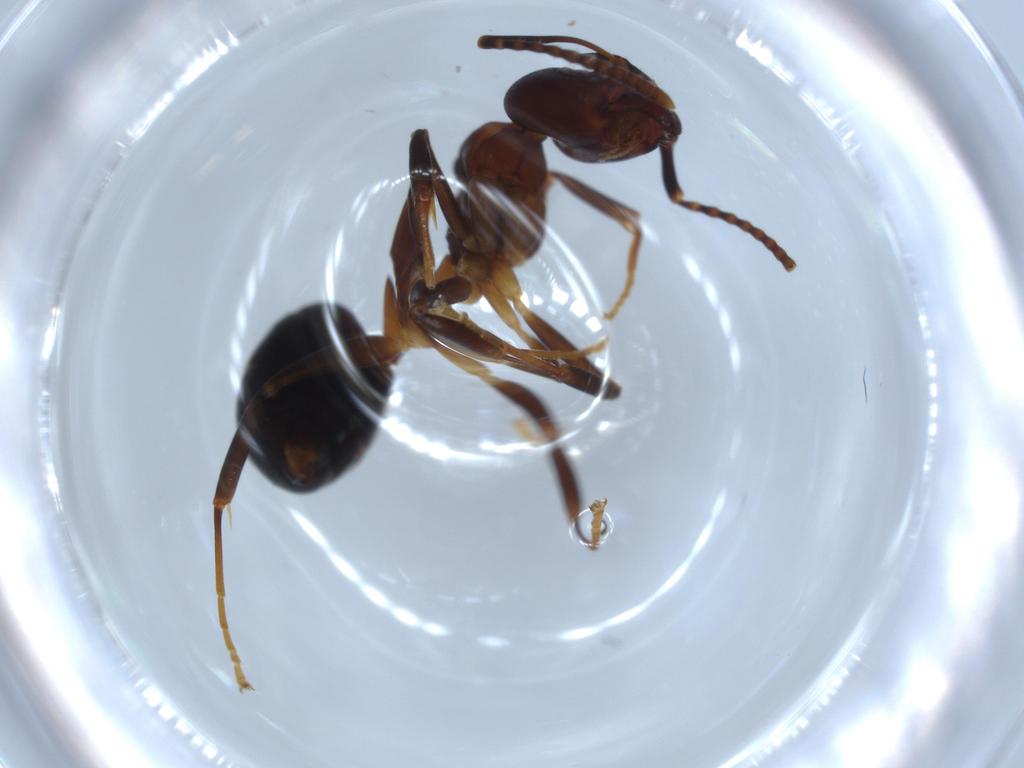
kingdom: Animalia
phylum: Arthropoda
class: Insecta
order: Hymenoptera
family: Formicidae
